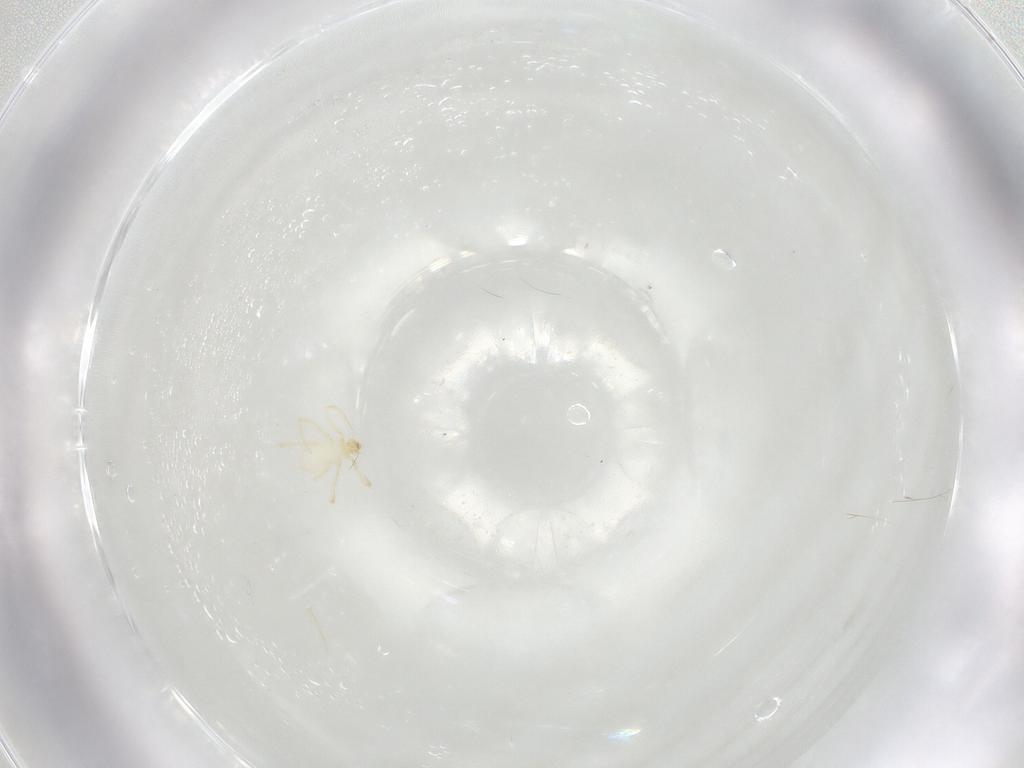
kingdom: Animalia
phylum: Arthropoda
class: Arachnida
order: Trombidiformes
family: Erythraeidae
